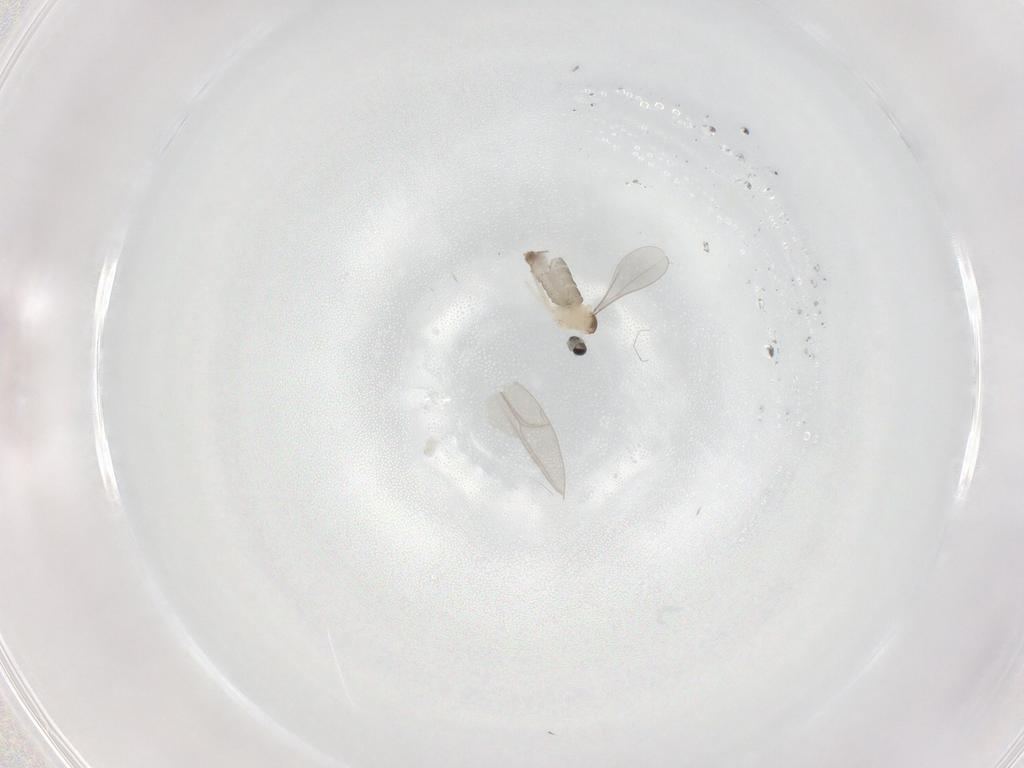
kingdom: Animalia
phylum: Arthropoda
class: Insecta
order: Diptera
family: Cecidomyiidae
